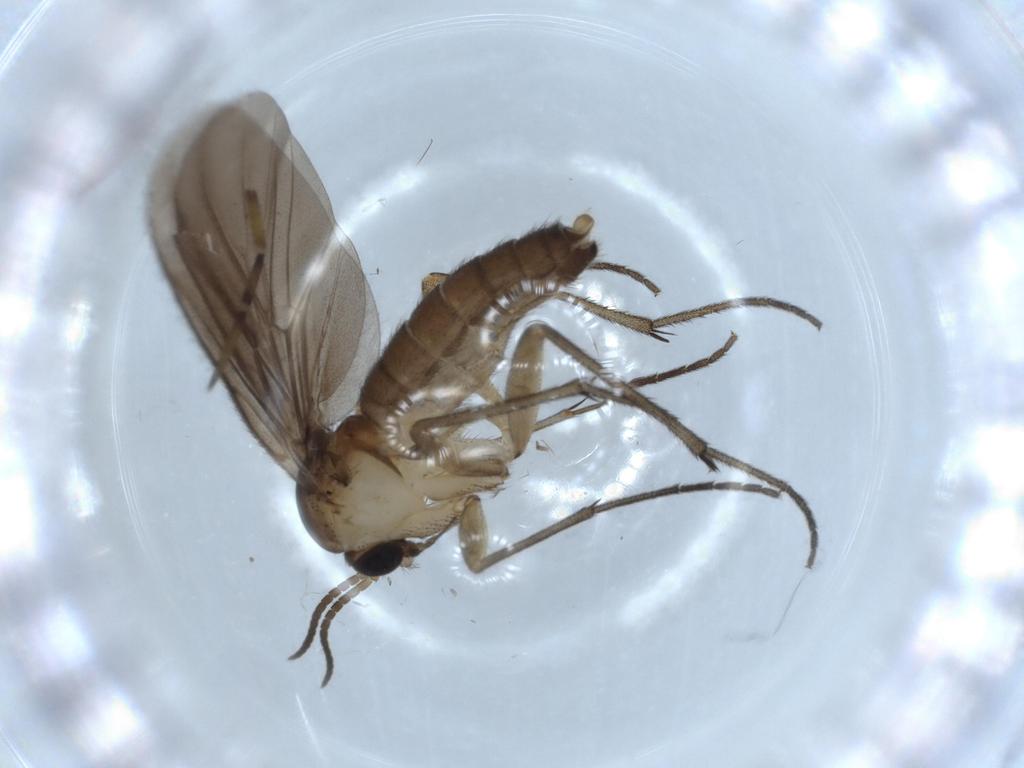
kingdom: Animalia
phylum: Arthropoda
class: Insecta
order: Diptera
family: Diadocidiidae
